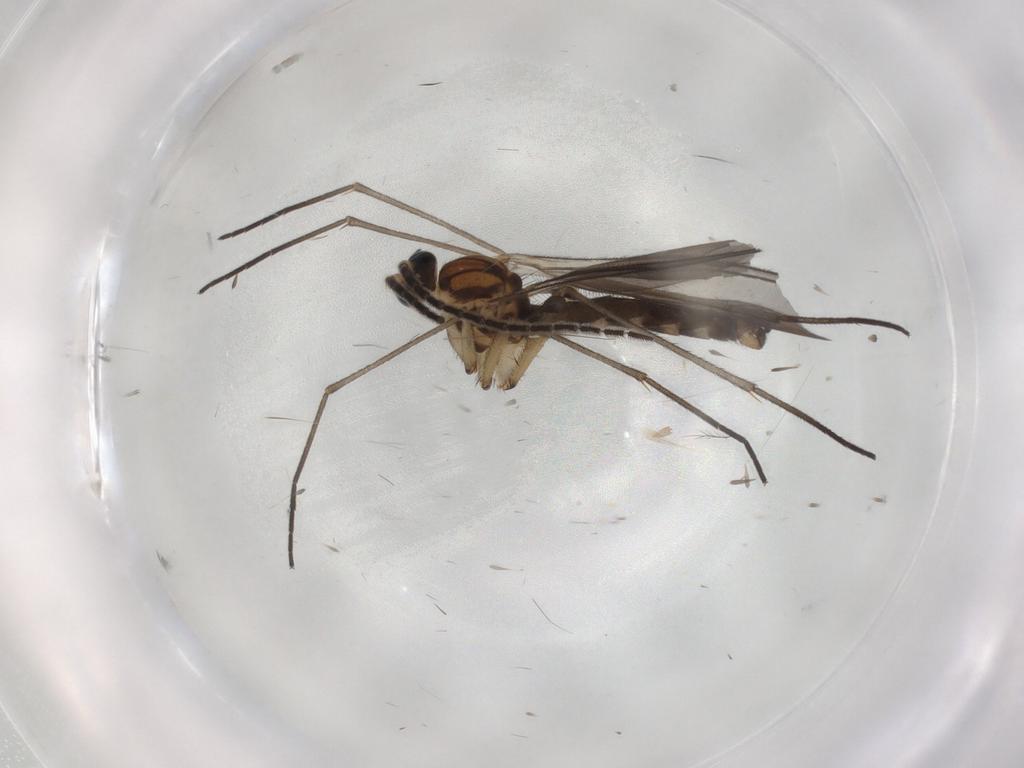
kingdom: Animalia
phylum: Arthropoda
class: Insecta
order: Diptera
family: Sciaridae
